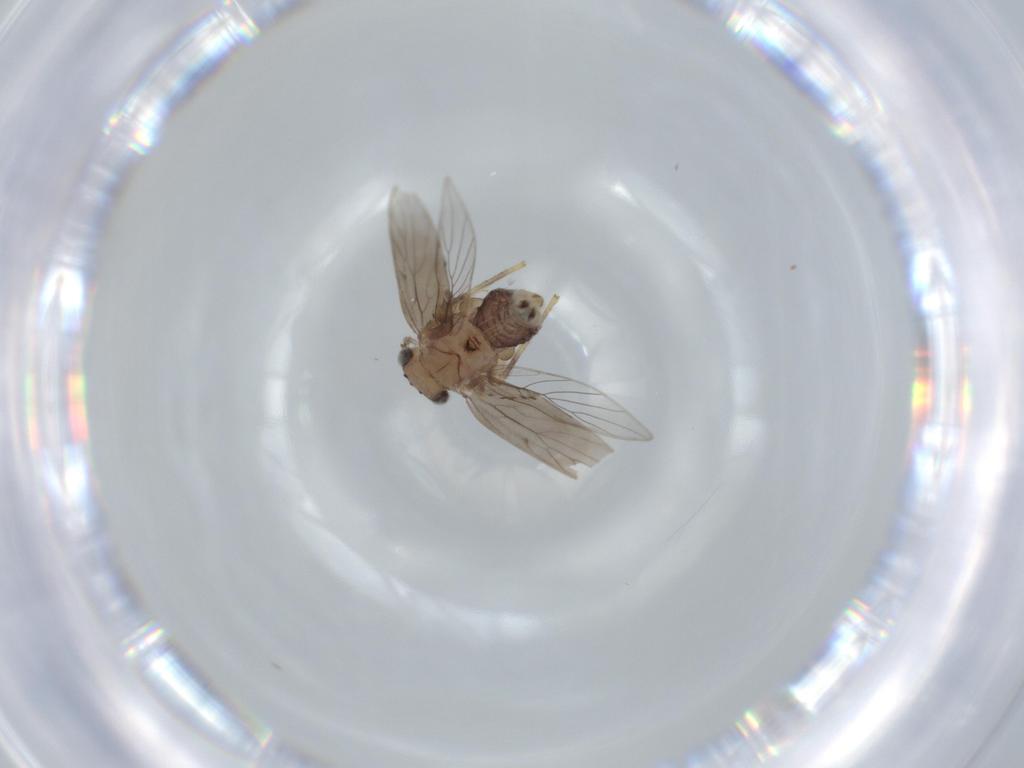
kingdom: Animalia
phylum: Arthropoda
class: Insecta
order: Psocodea
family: Lepidopsocidae
